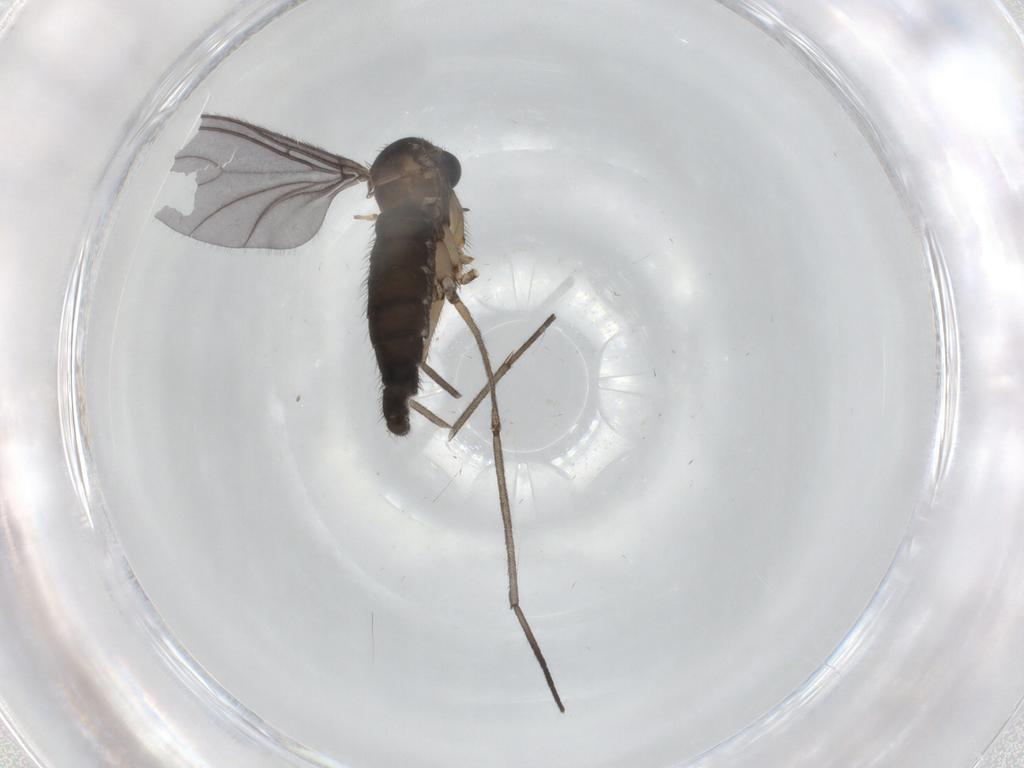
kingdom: Animalia
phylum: Arthropoda
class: Insecta
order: Diptera
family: Sciaridae
